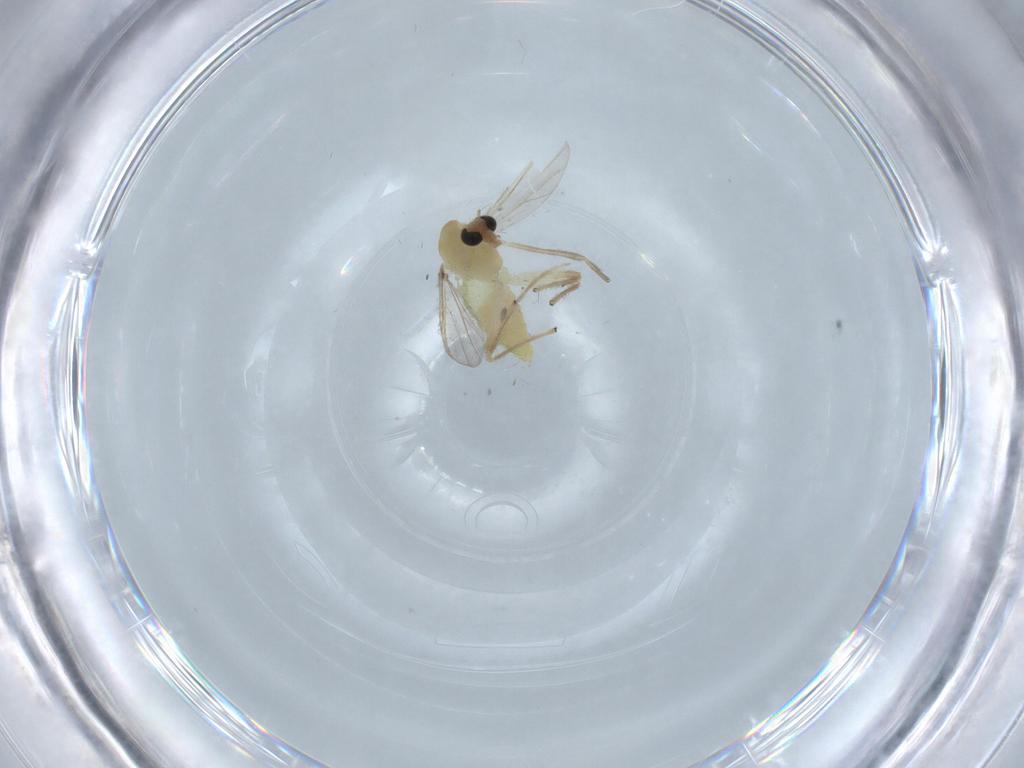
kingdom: Animalia
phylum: Arthropoda
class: Insecta
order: Diptera
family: Chironomidae
